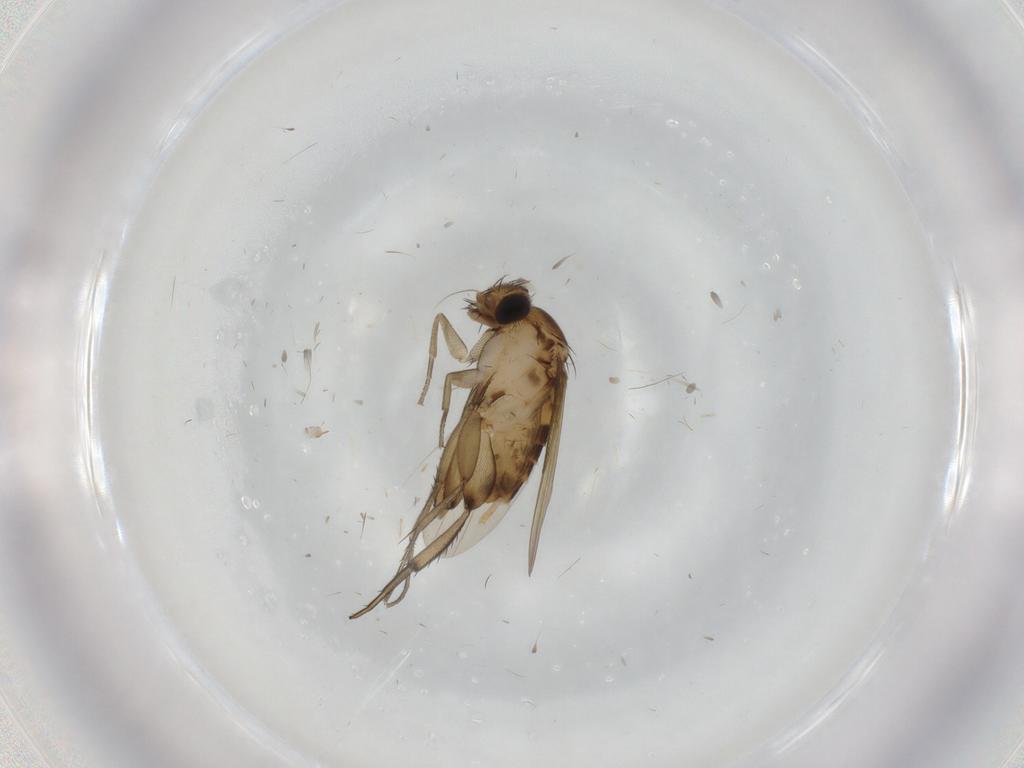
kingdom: Animalia
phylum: Arthropoda
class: Insecta
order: Diptera
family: Phoridae
